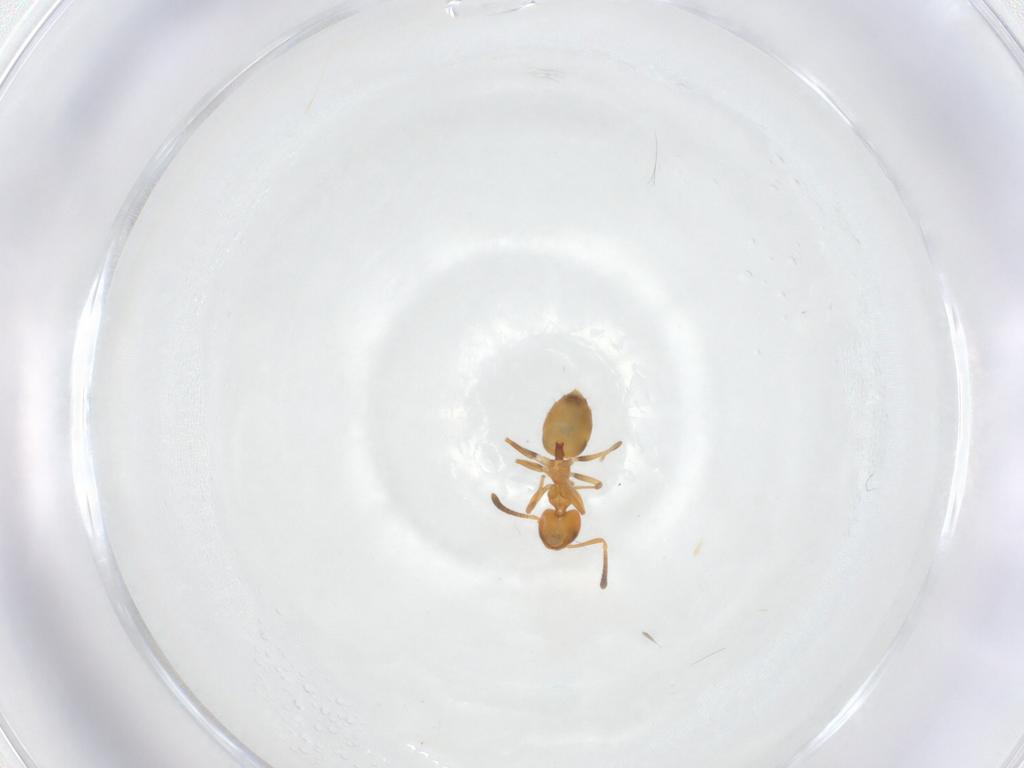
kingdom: Animalia
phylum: Arthropoda
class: Insecta
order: Hymenoptera
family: Formicidae
